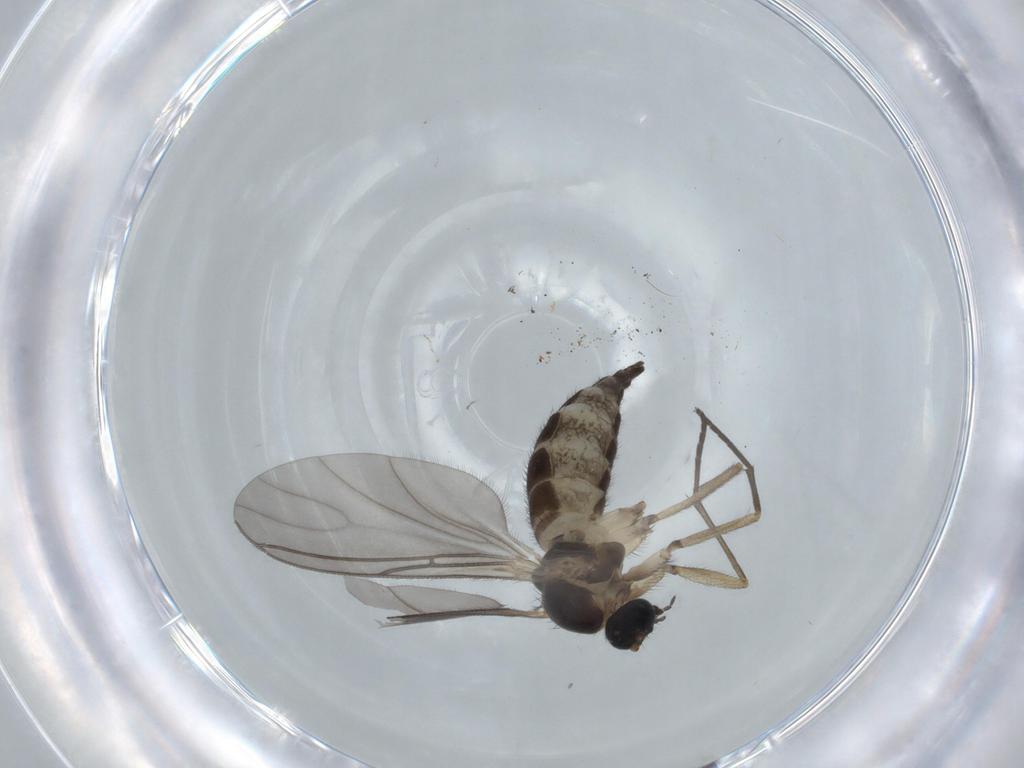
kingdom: Animalia
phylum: Arthropoda
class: Insecta
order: Diptera
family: Sciaridae
